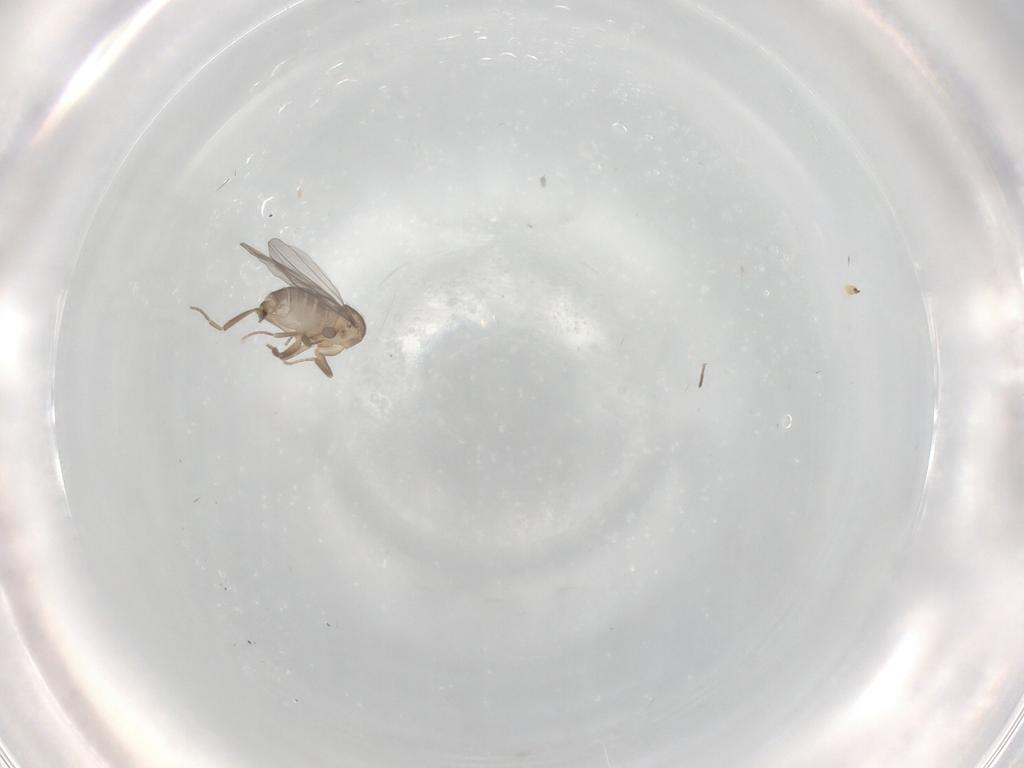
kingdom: Animalia
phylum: Arthropoda
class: Insecta
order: Diptera
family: Limoniidae
